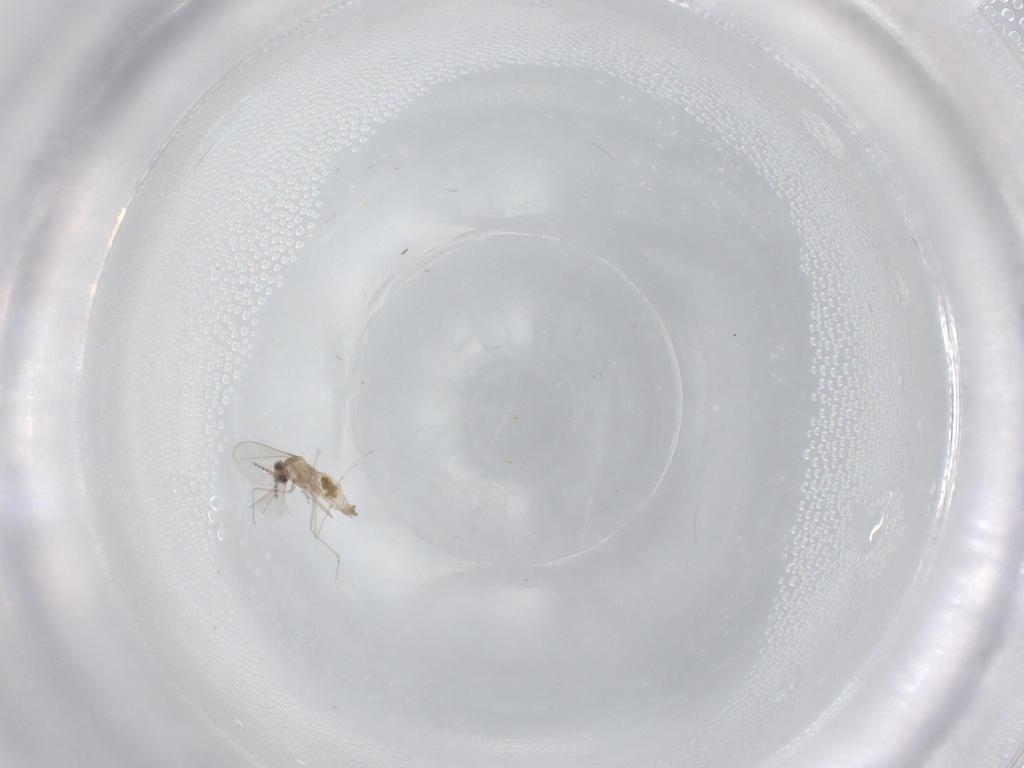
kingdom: Animalia
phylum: Arthropoda
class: Insecta
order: Diptera
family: Cecidomyiidae
